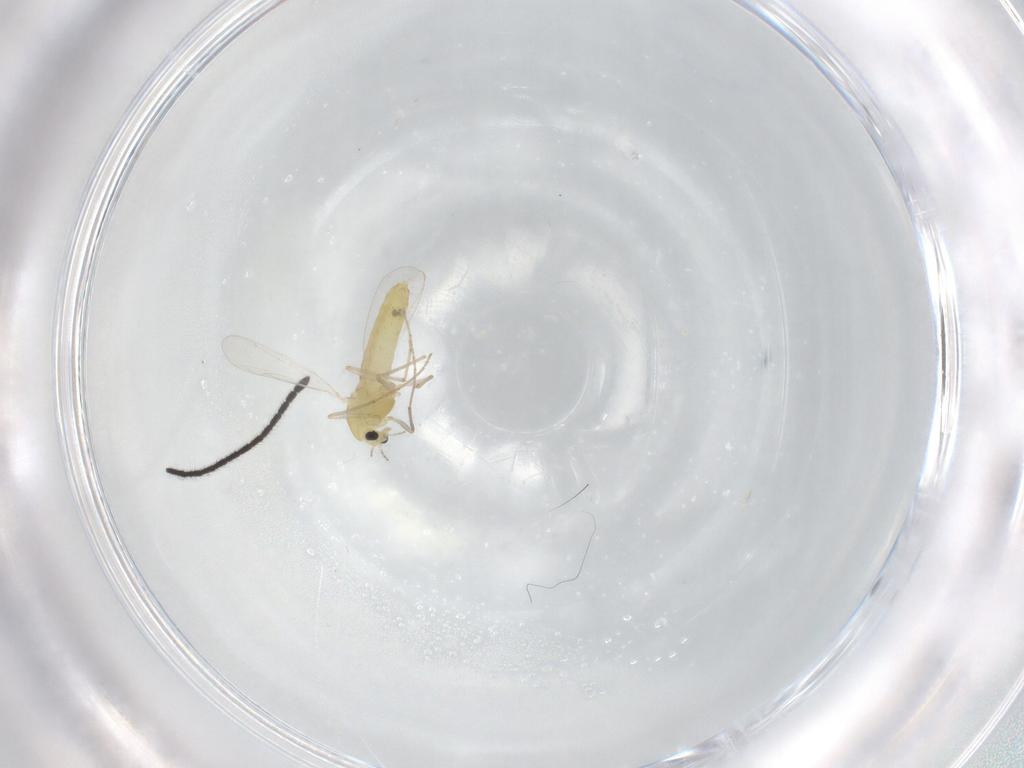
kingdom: Animalia
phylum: Arthropoda
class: Insecta
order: Diptera
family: Chironomidae
